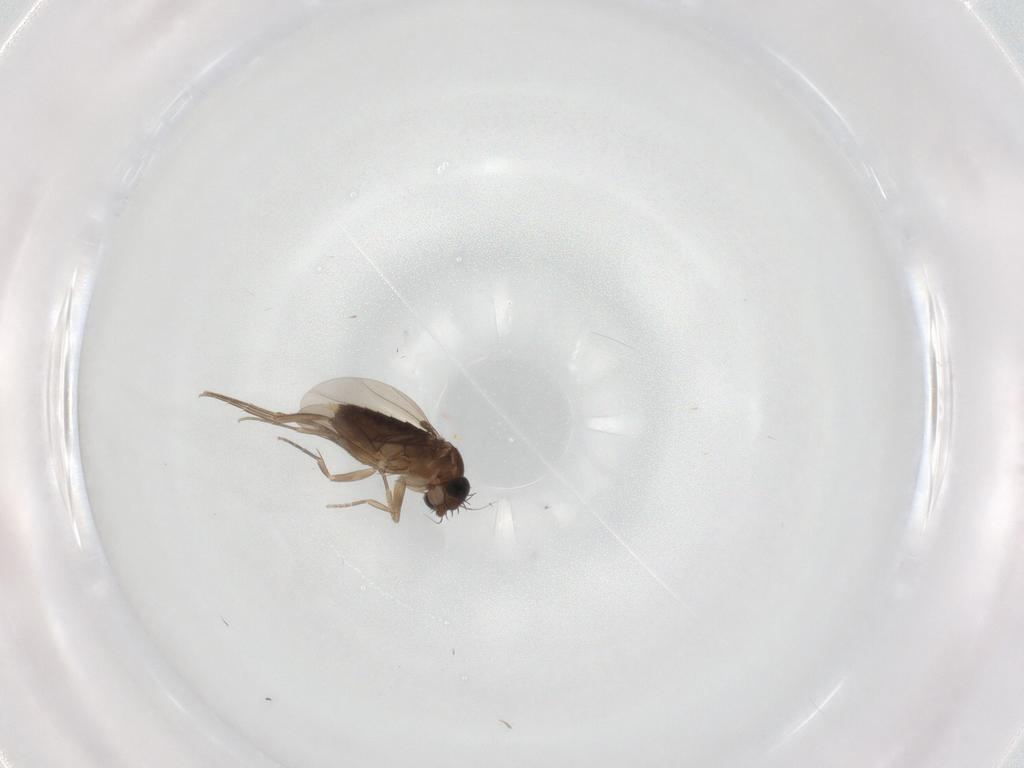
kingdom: Animalia
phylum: Arthropoda
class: Insecta
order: Diptera
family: Phoridae
